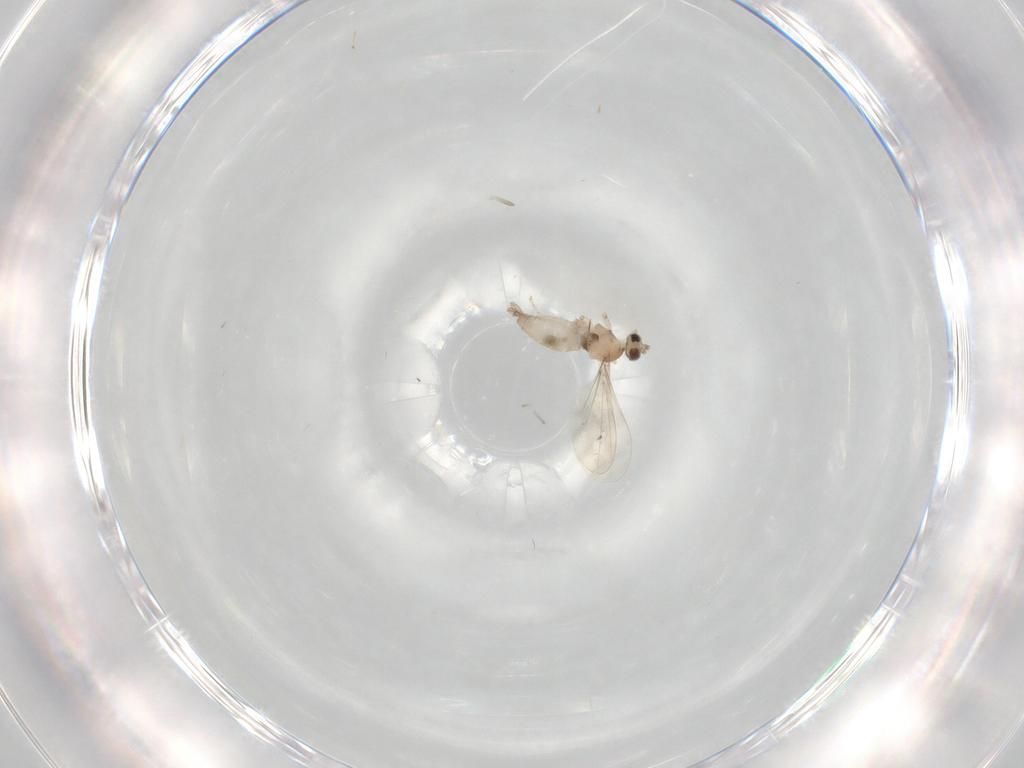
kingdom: Animalia
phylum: Arthropoda
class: Insecta
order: Diptera
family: Cecidomyiidae
